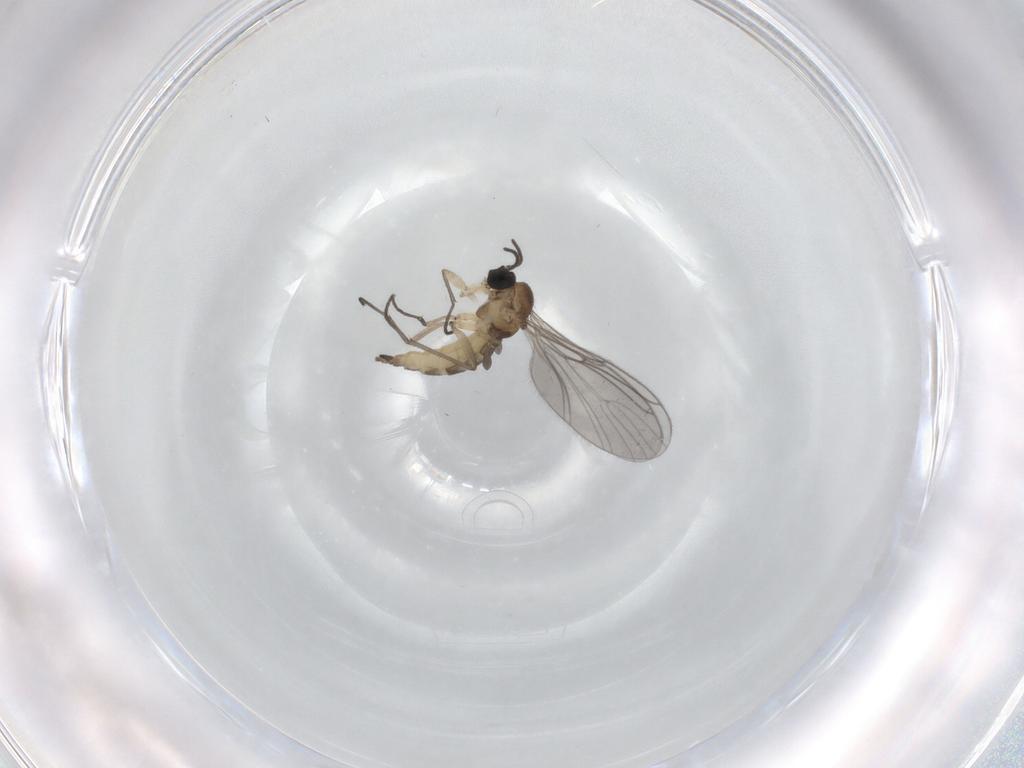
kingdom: Animalia
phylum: Arthropoda
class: Insecta
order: Diptera
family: Sciaridae
